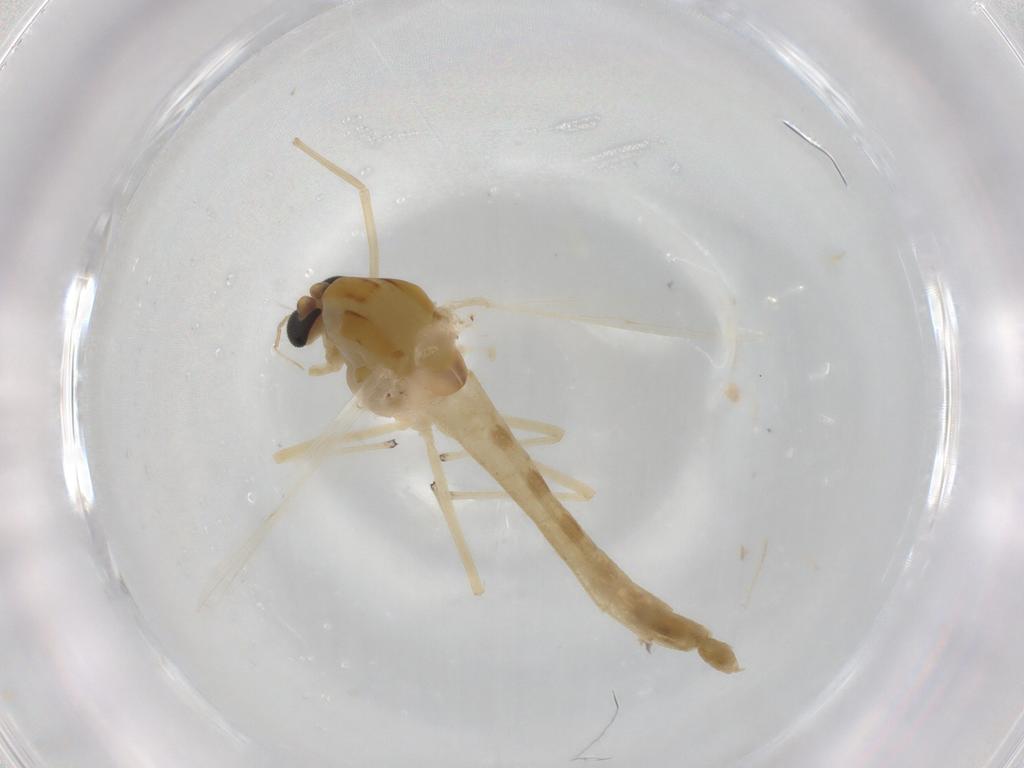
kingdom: Animalia
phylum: Arthropoda
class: Insecta
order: Diptera
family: Chironomidae
